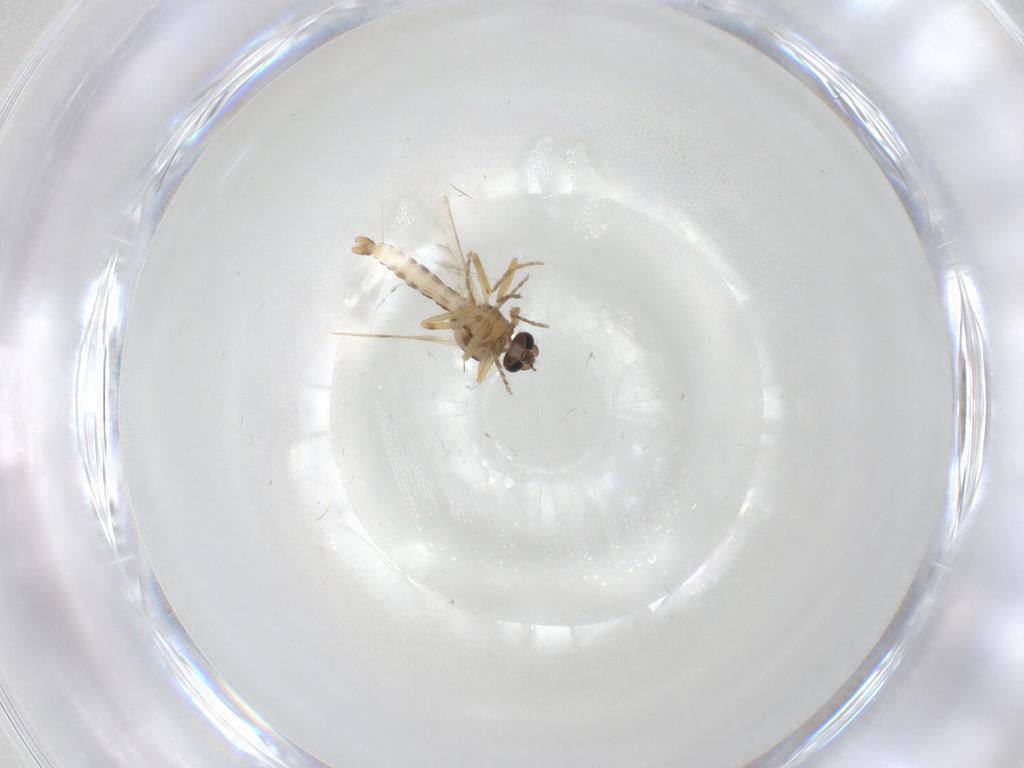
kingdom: Animalia
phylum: Arthropoda
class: Insecta
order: Diptera
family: Ceratopogonidae
